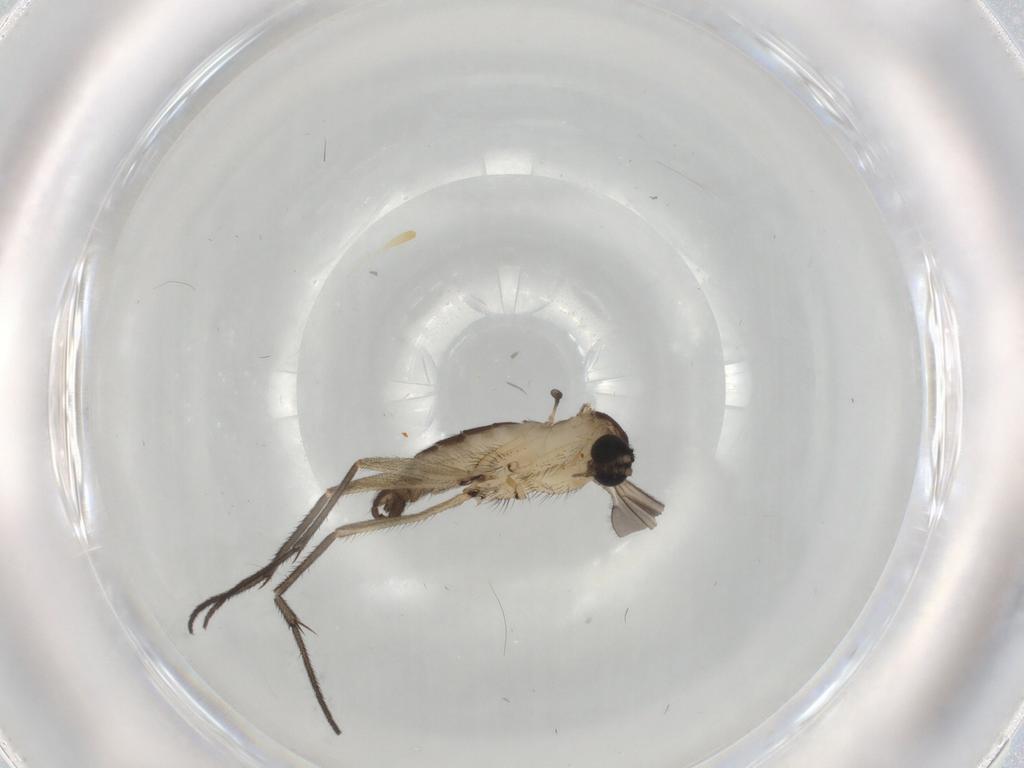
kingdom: Animalia
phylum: Arthropoda
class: Insecta
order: Diptera
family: Sciaridae
